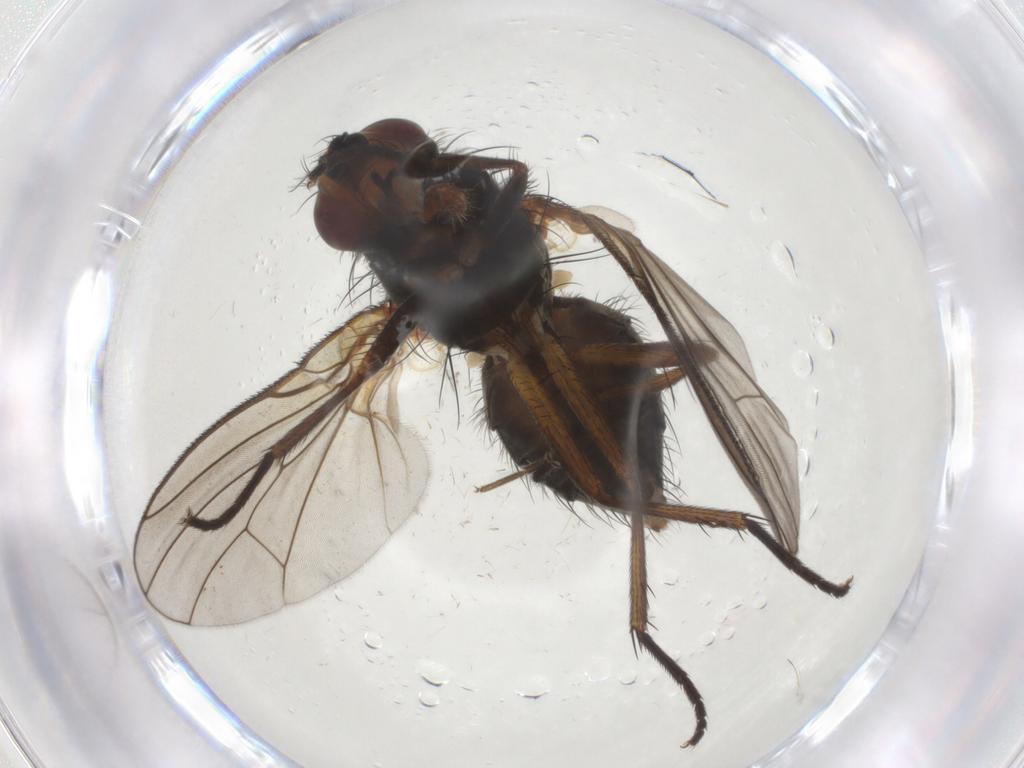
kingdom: Animalia
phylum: Arthropoda
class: Insecta
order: Diptera
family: Anthomyiidae
